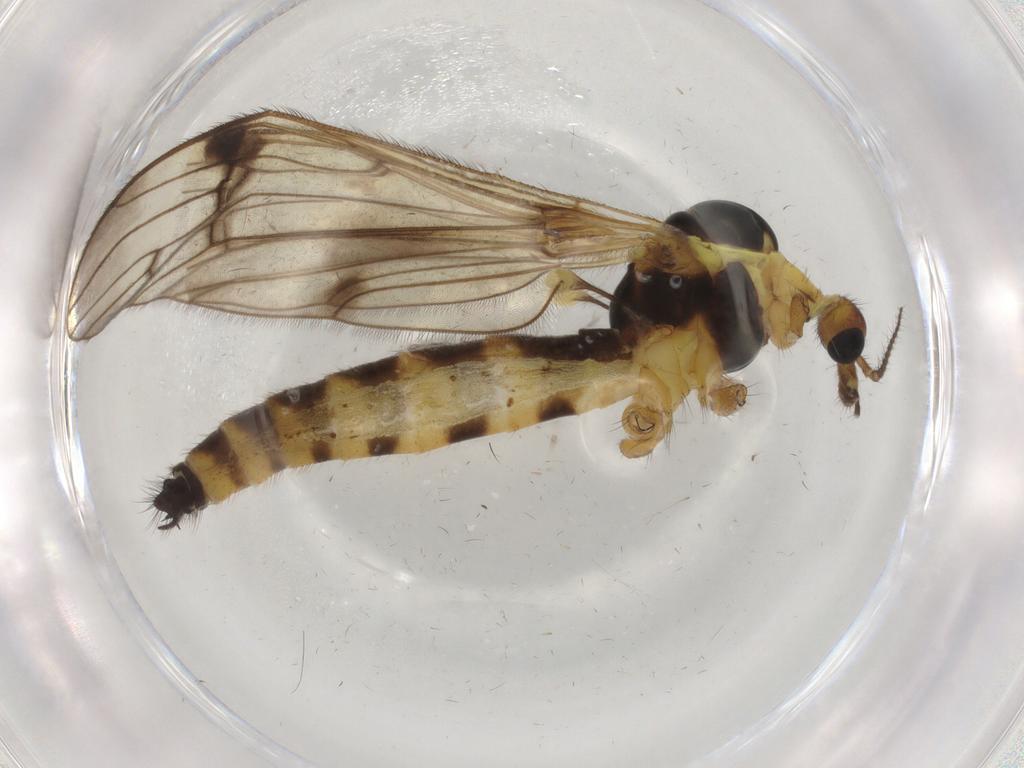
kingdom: Animalia
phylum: Arthropoda
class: Insecta
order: Diptera
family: Cecidomyiidae
